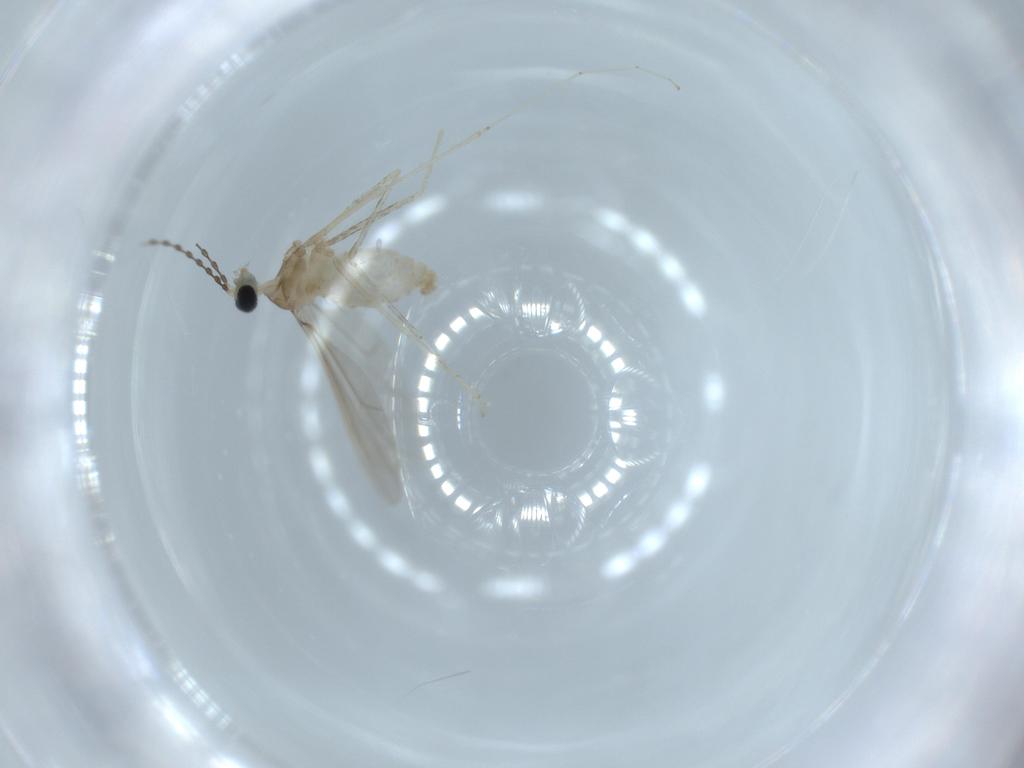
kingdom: Animalia
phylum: Arthropoda
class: Insecta
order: Diptera
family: Cecidomyiidae
